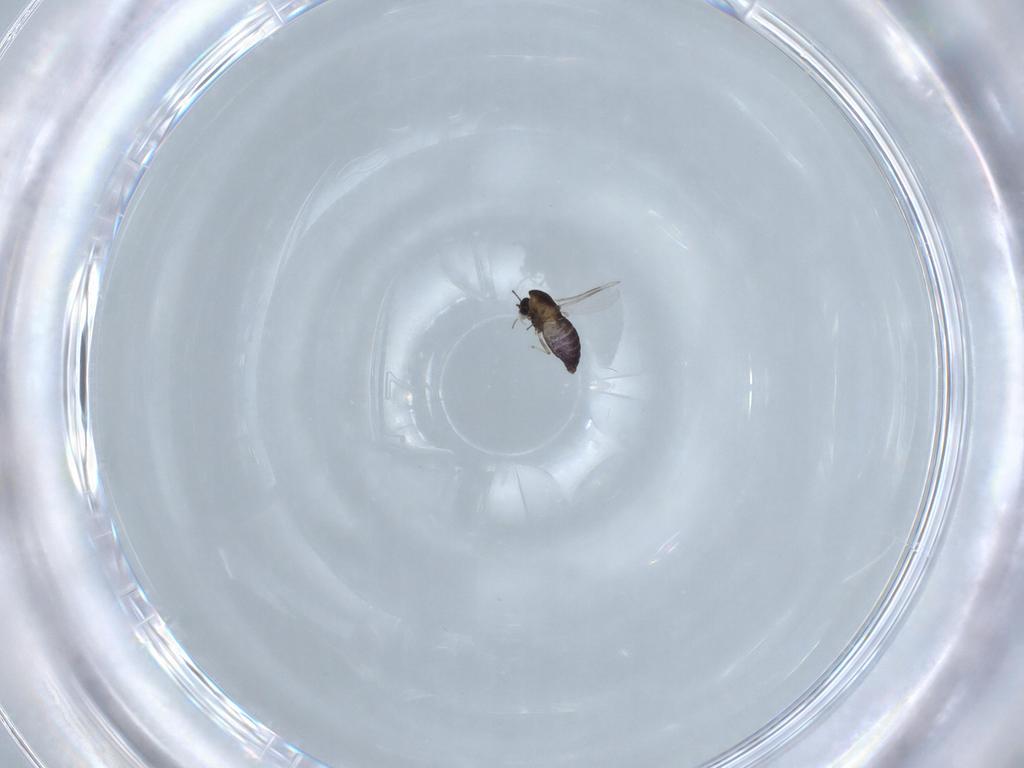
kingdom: Animalia
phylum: Arthropoda
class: Insecta
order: Diptera
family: Chironomidae
